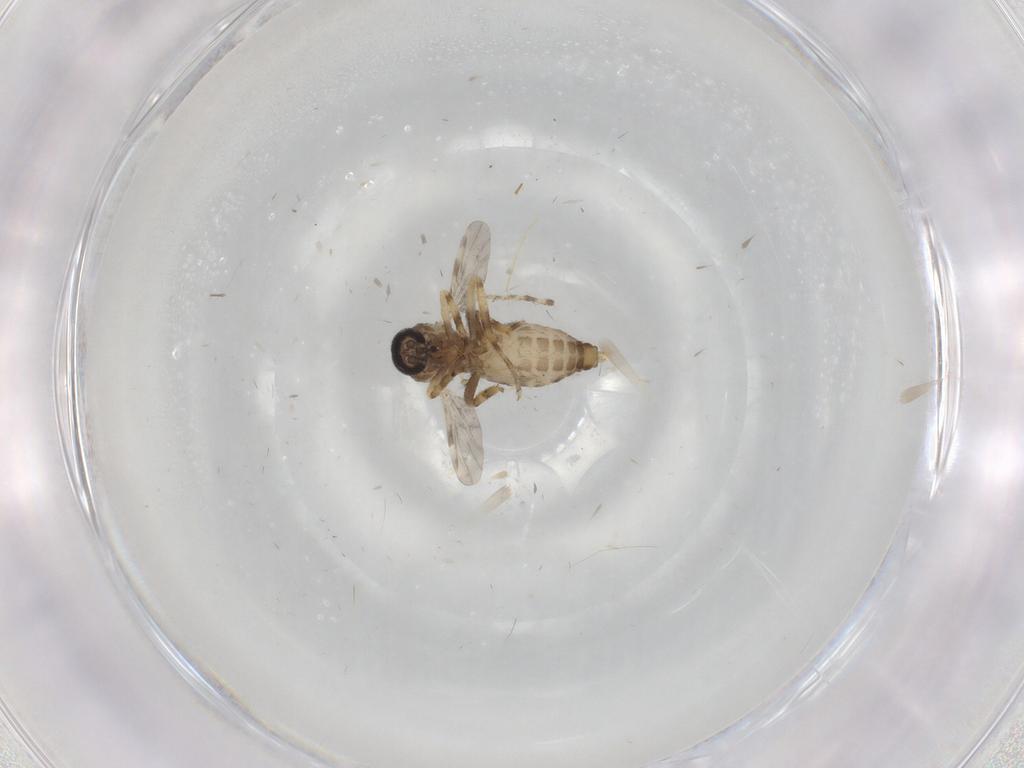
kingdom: Animalia
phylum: Arthropoda
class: Insecta
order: Diptera
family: Ceratopogonidae
